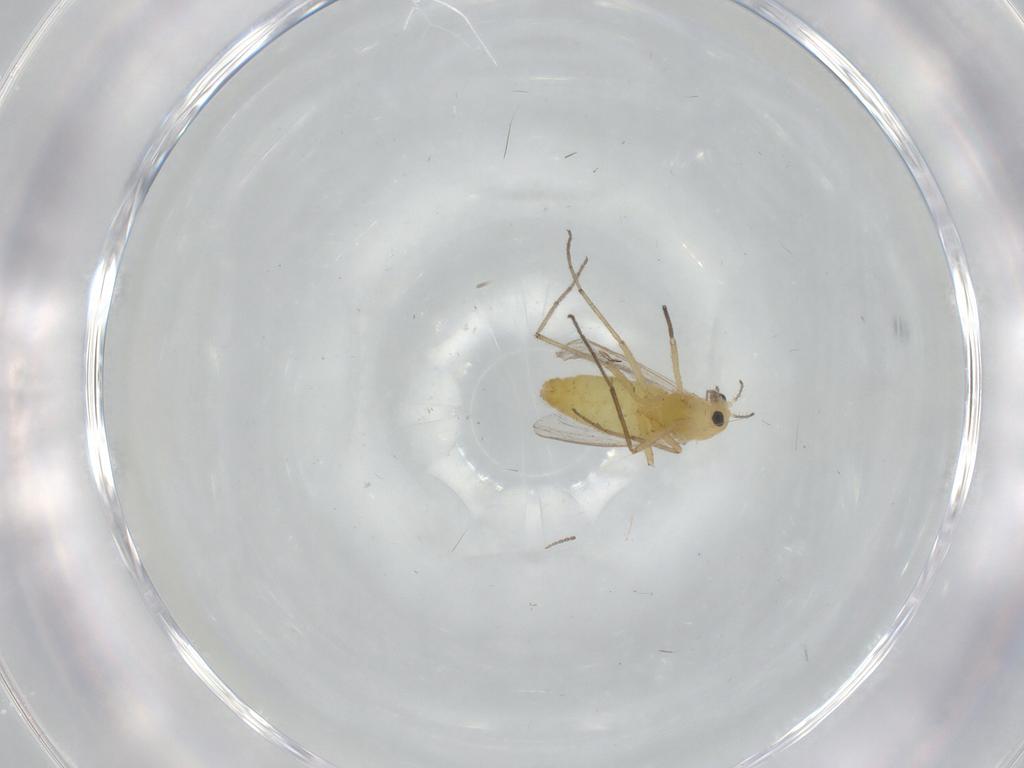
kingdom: Animalia
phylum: Arthropoda
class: Insecta
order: Diptera
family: Chironomidae
